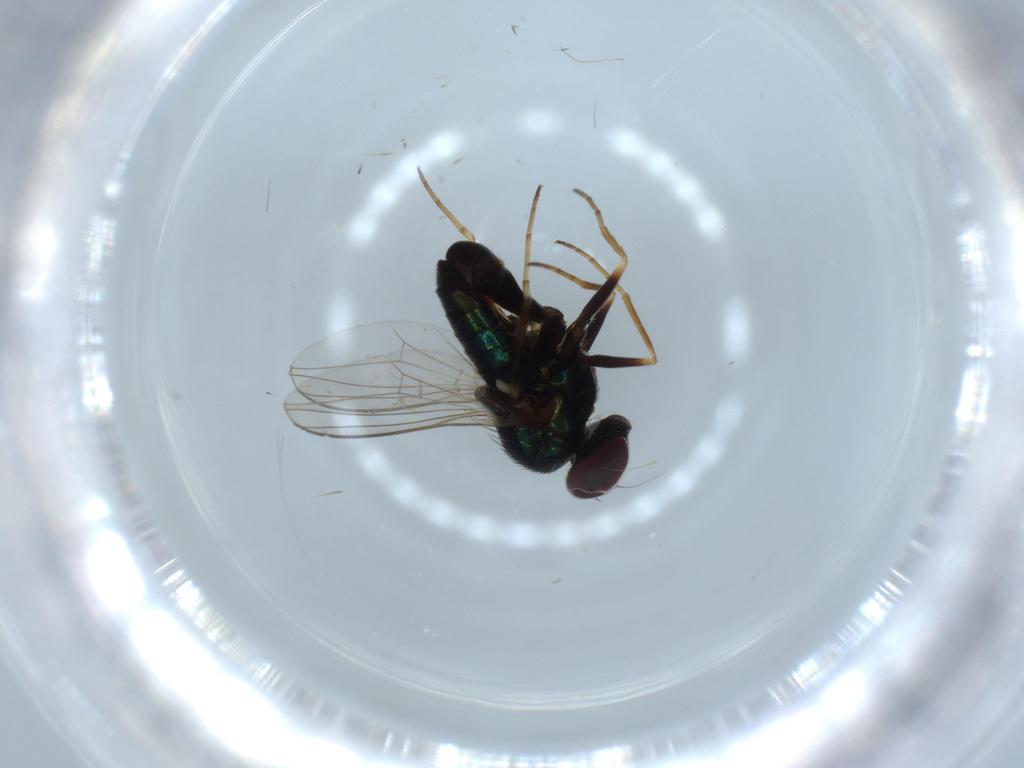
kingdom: Animalia
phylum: Arthropoda
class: Insecta
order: Diptera
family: Dolichopodidae
